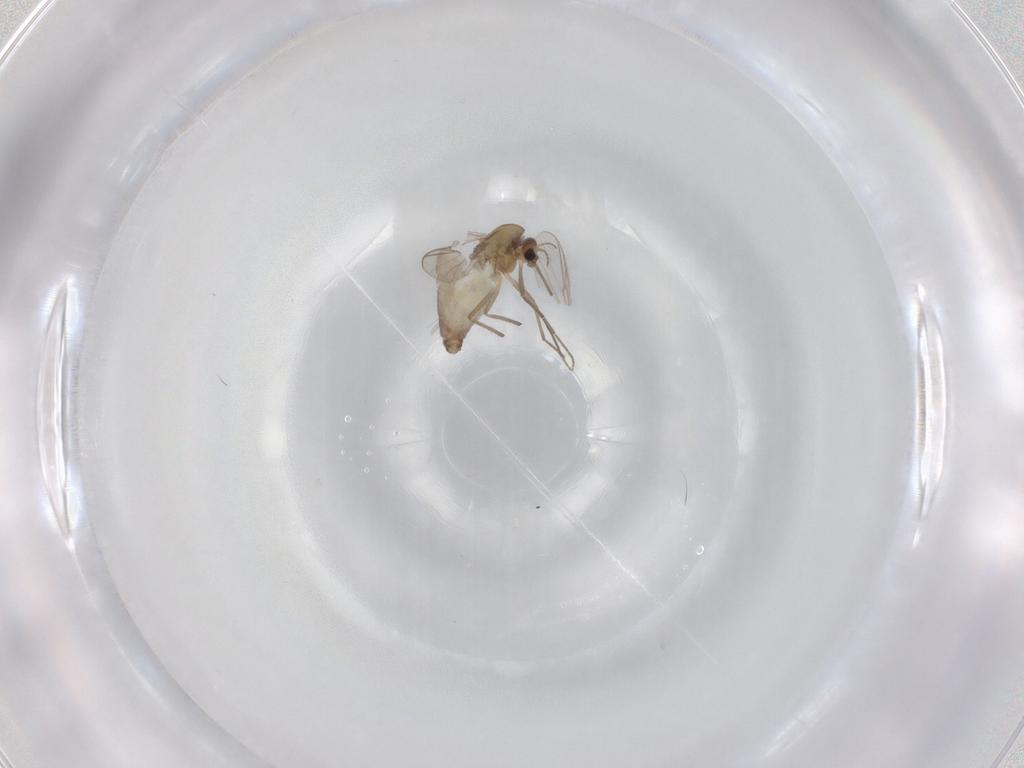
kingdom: Animalia
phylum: Arthropoda
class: Insecta
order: Diptera
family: Chironomidae
